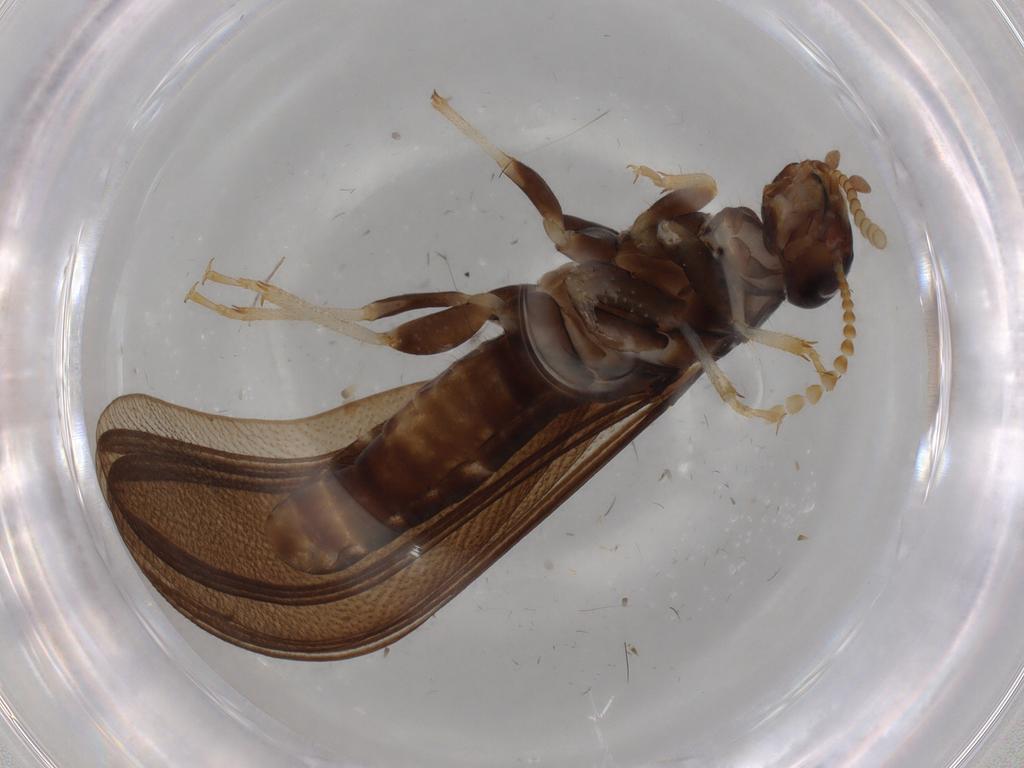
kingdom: Animalia
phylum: Arthropoda
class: Insecta
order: Blattodea
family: Kalotermitidae
